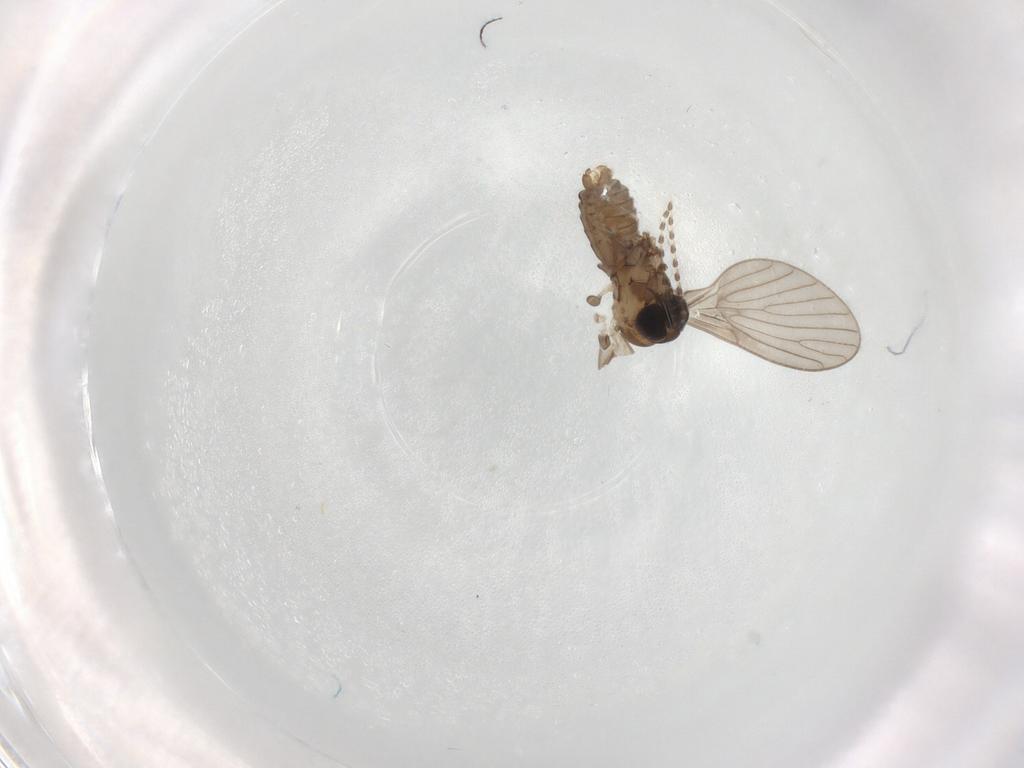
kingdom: Animalia
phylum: Arthropoda
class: Insecta
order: Diptera
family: Psychodidae
